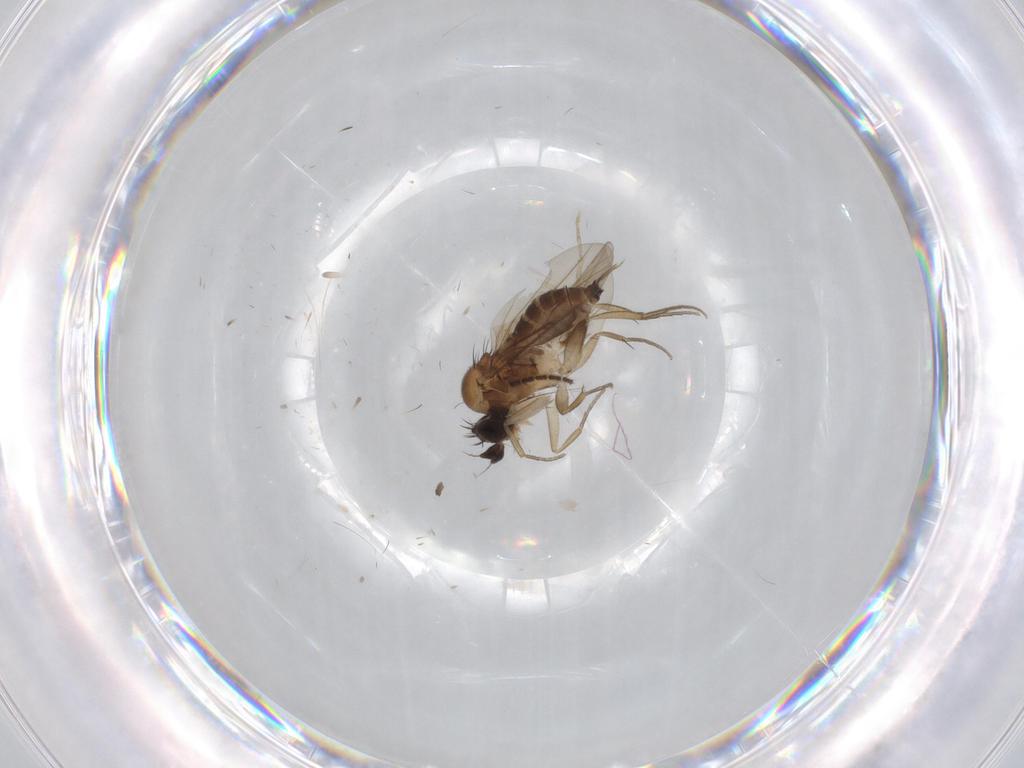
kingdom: Animalia
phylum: Arthropoda
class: Insecta
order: Diptera
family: Phoridae
